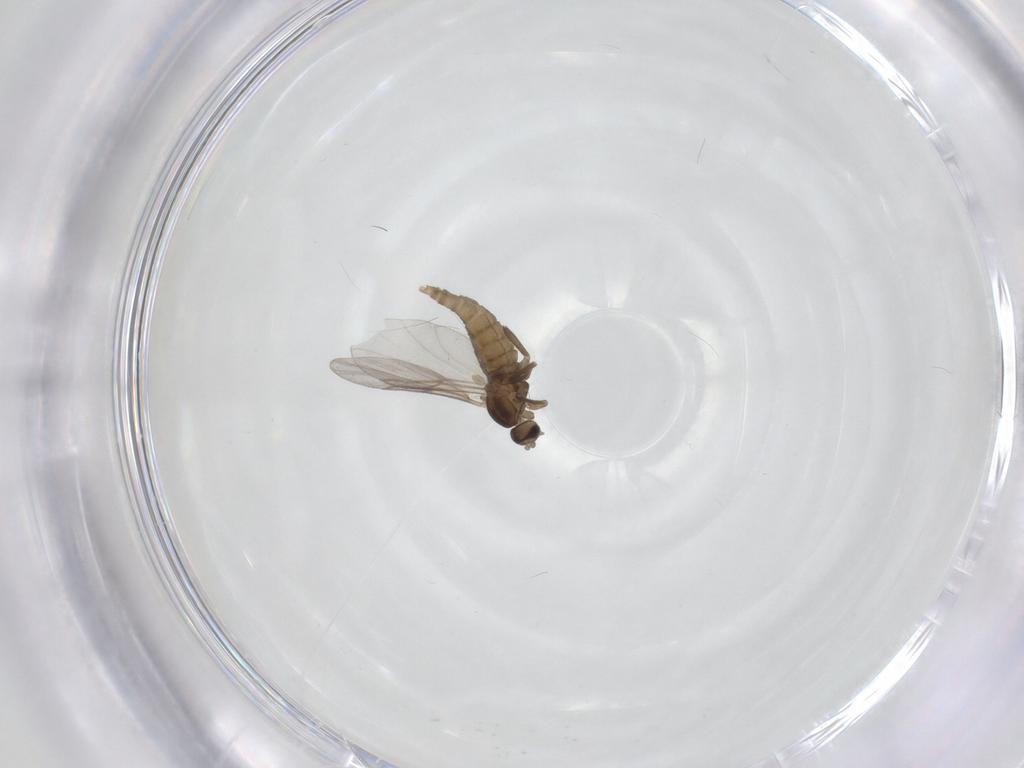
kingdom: Animalia
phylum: Arthropoda
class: Insecta
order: Diptera
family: Cecidomyiidae
